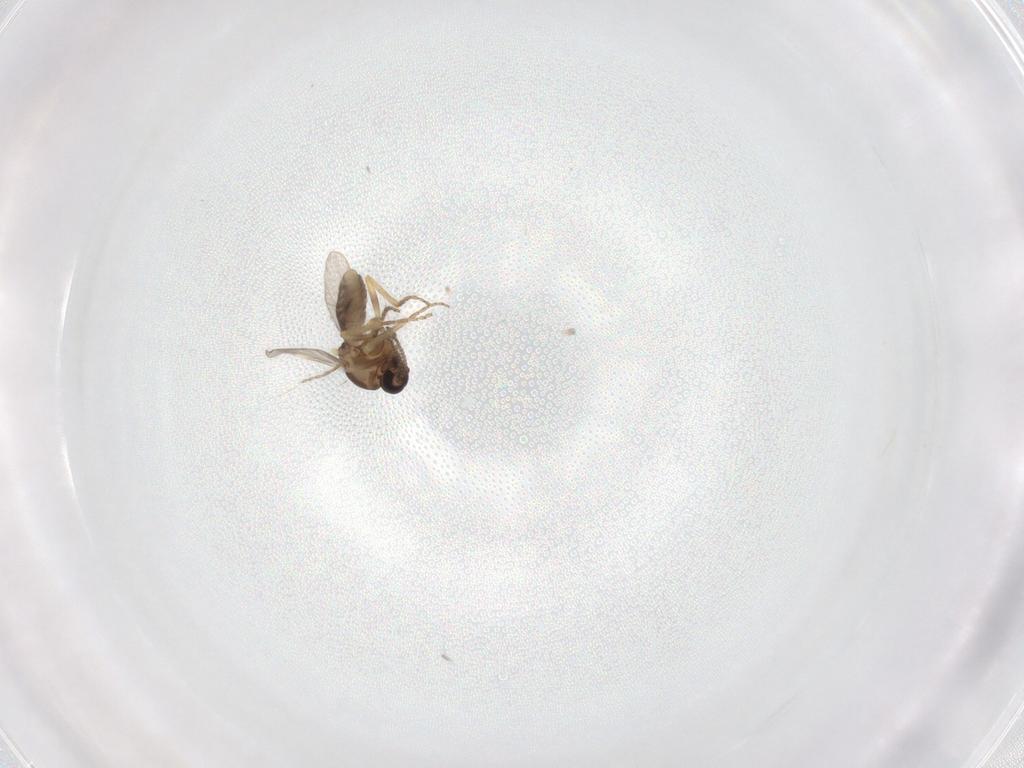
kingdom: Animalia
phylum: Arthropoda
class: Insecta
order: Diptera
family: Ceratopogonidae
